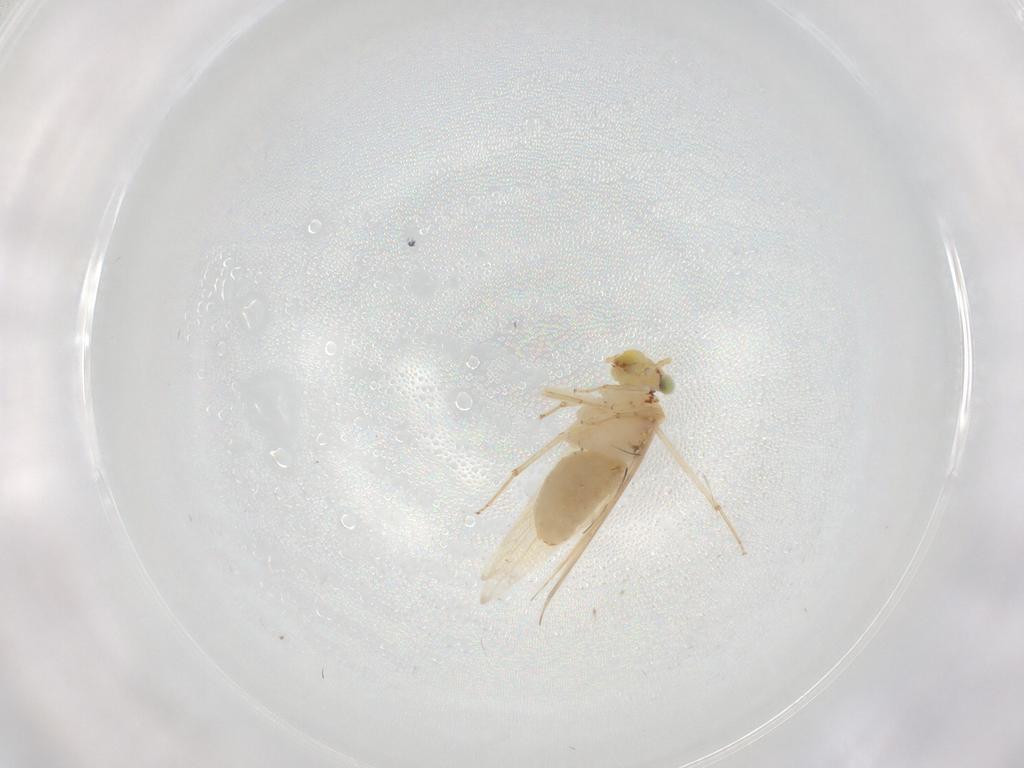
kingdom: Animalia
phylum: Arthropoda
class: Insecta
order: Psocodea
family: Lepidopsocidae
